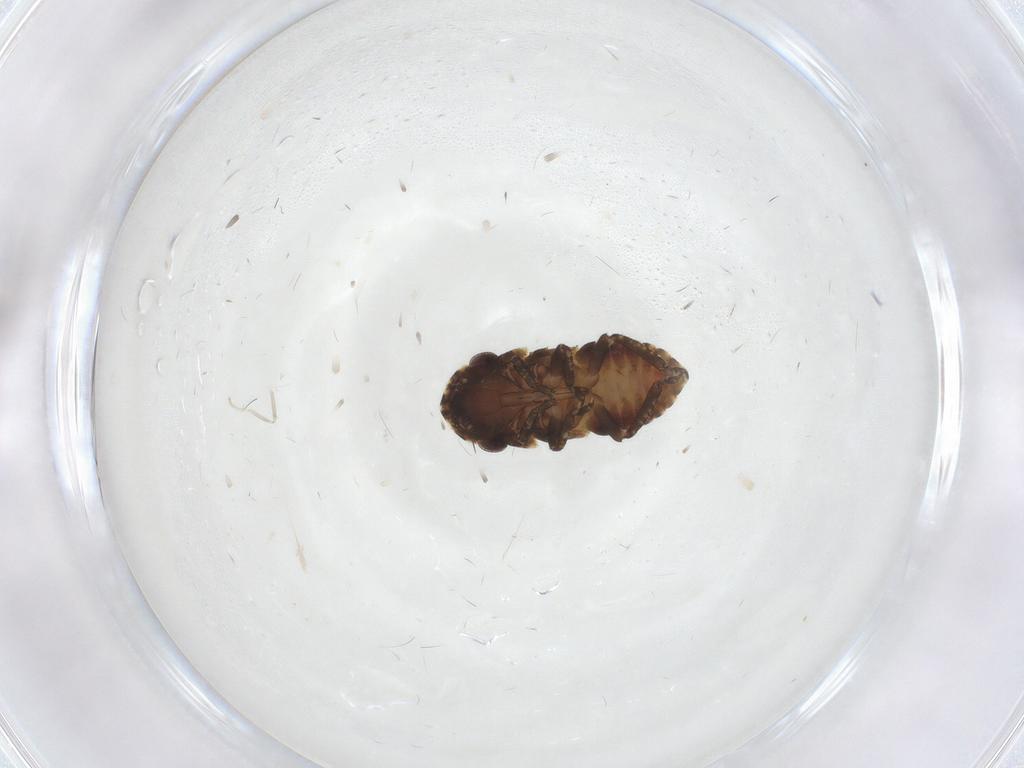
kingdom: Animalia
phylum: Arthropoda
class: Insecta
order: Hemiptera
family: Cicadellidae
